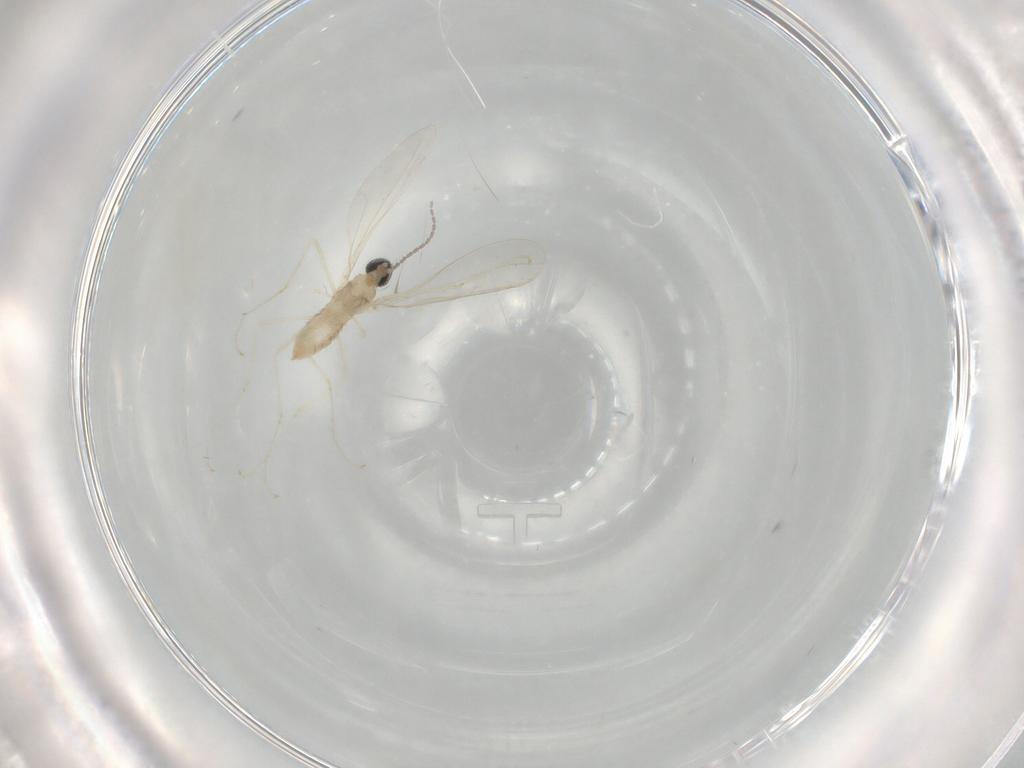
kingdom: Animalia
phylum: Arthropoda
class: Insecta
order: Diptera
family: Cecidomyiidae
